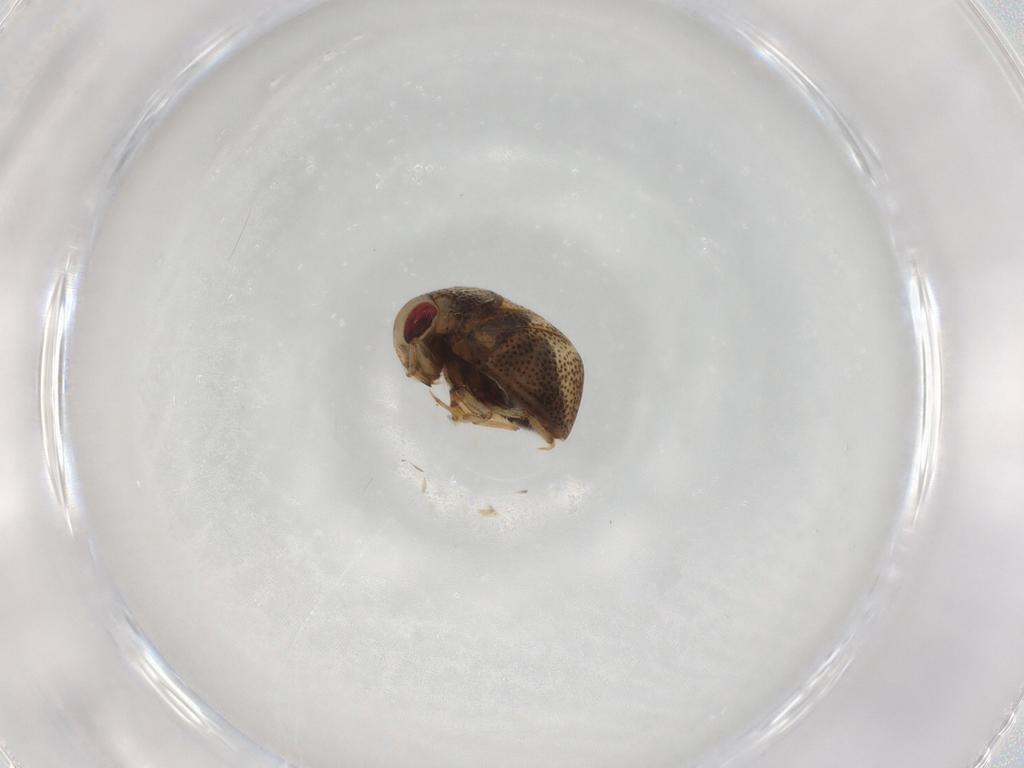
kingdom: Animalia
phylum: Arthropoda
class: Insecta
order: Hemiptera
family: Pleidae
